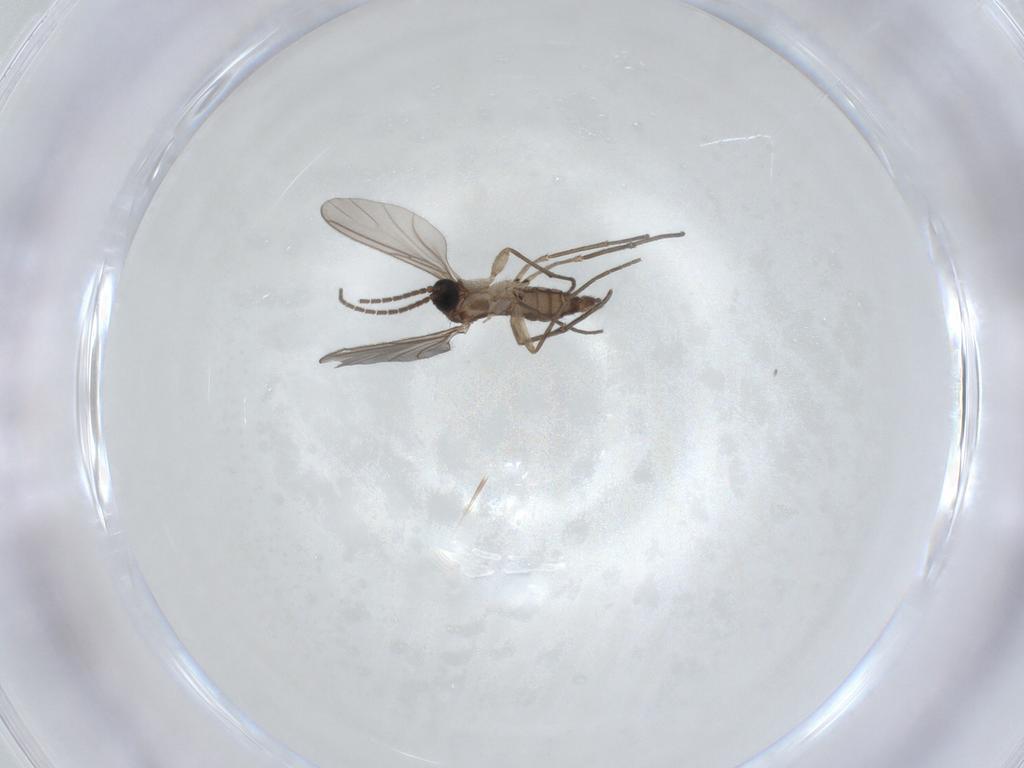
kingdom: Animalia
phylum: Arthropoda
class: Insecta
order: Diptera
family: Sciaridae
